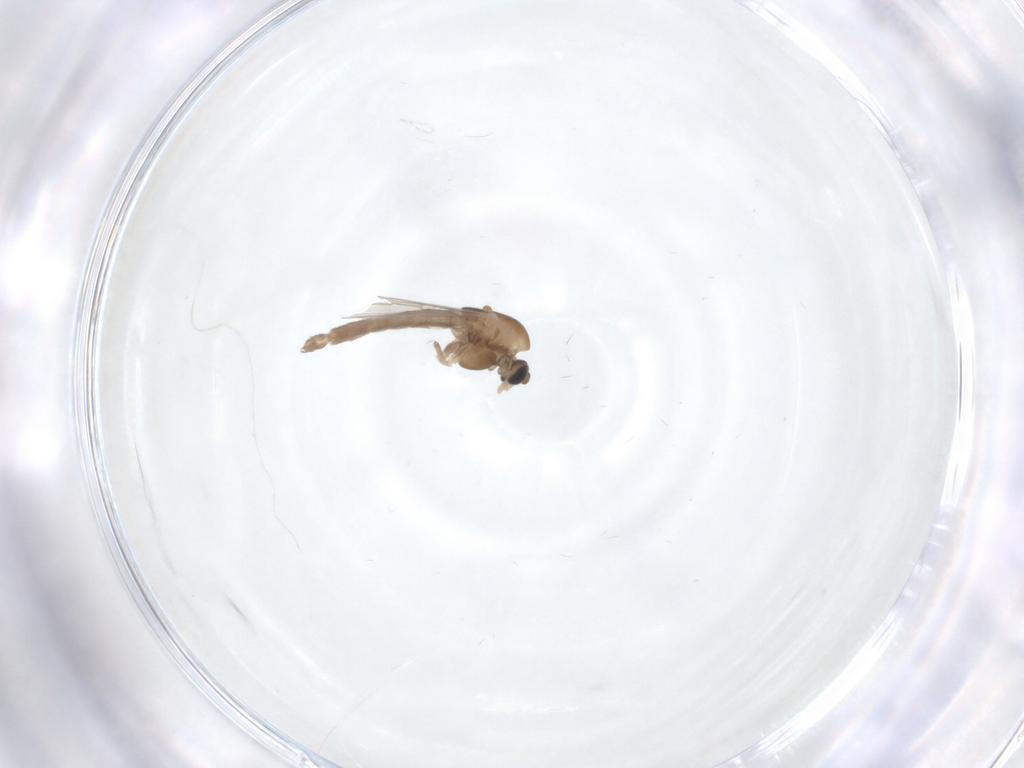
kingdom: Animalia
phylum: Arthropoda
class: Insecta
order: Diptera
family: Chironomidae
